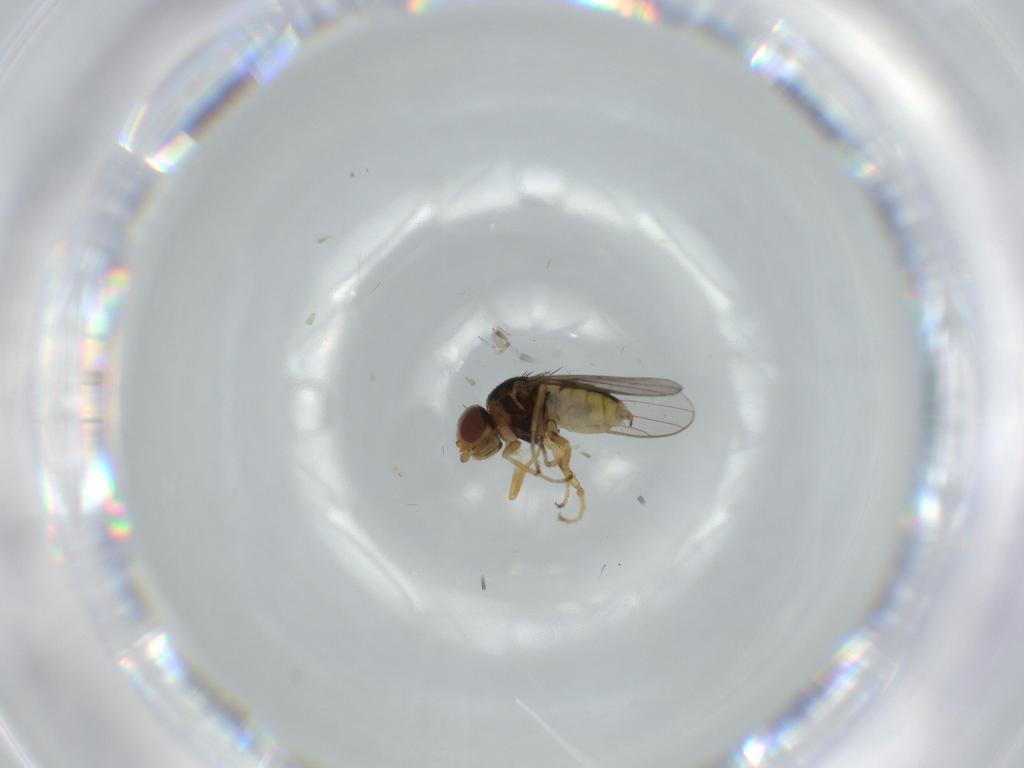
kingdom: Animalia
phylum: Arthropoda
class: Insecta
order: Diptera
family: Chloropidae
